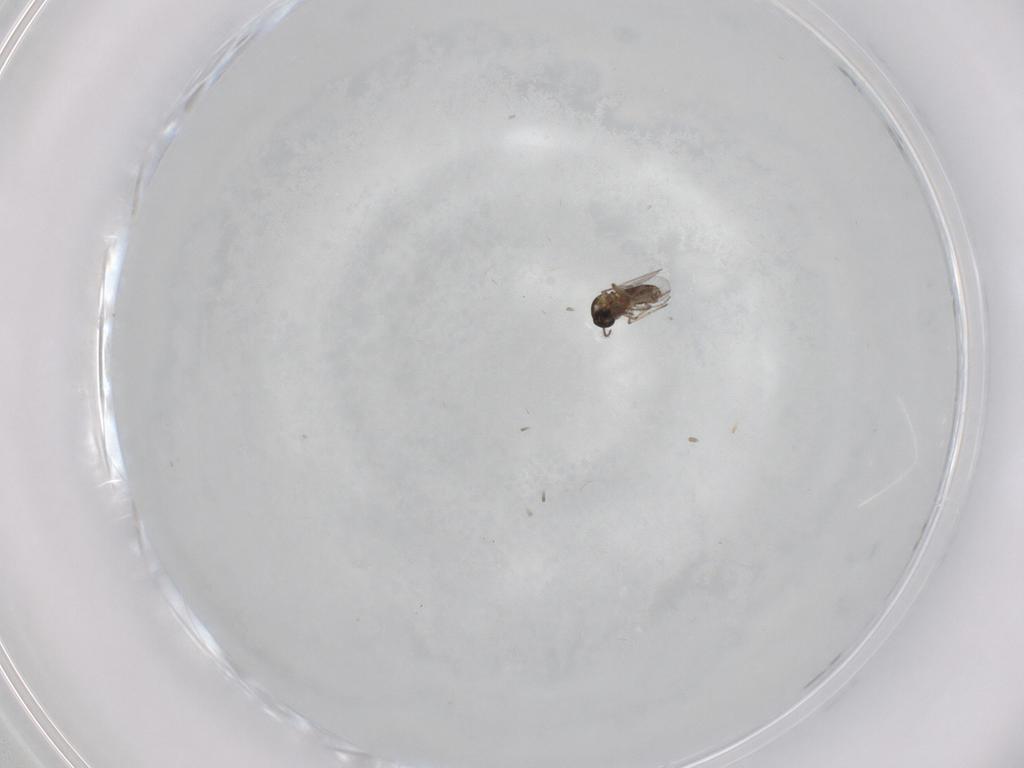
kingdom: Animalia
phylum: Arthropoda
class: Insecta
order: Diptera
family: Ceratopogonidae
